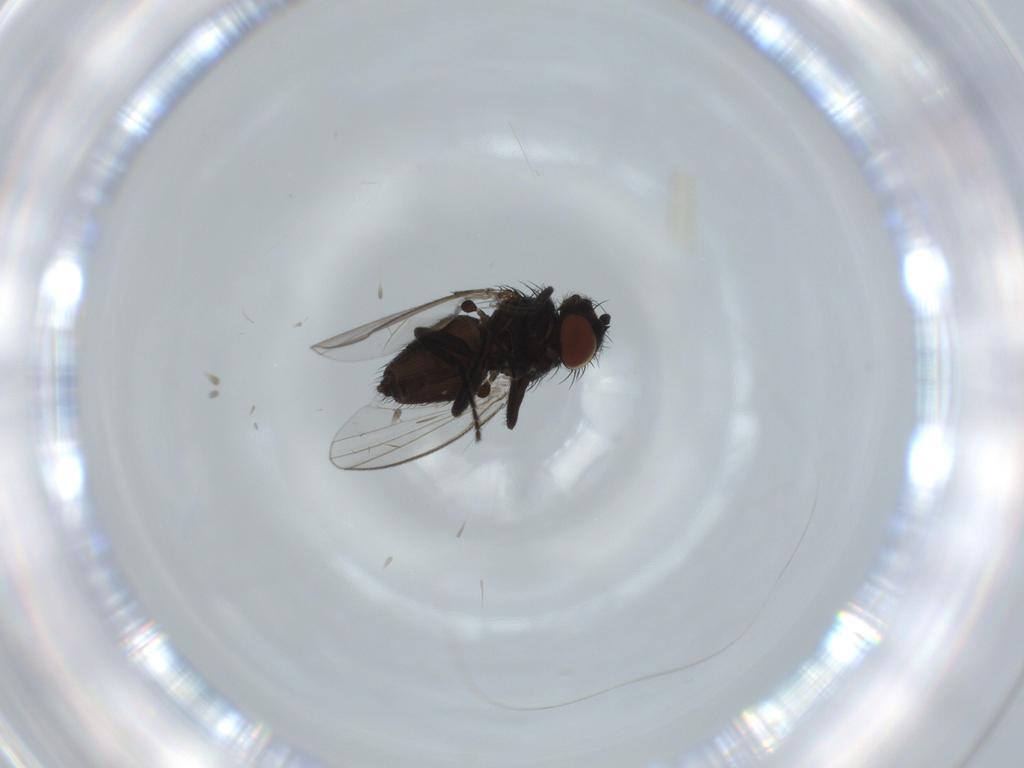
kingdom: Animalia
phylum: Arthropoda
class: Insecta
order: Diptera
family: Milichiidae
